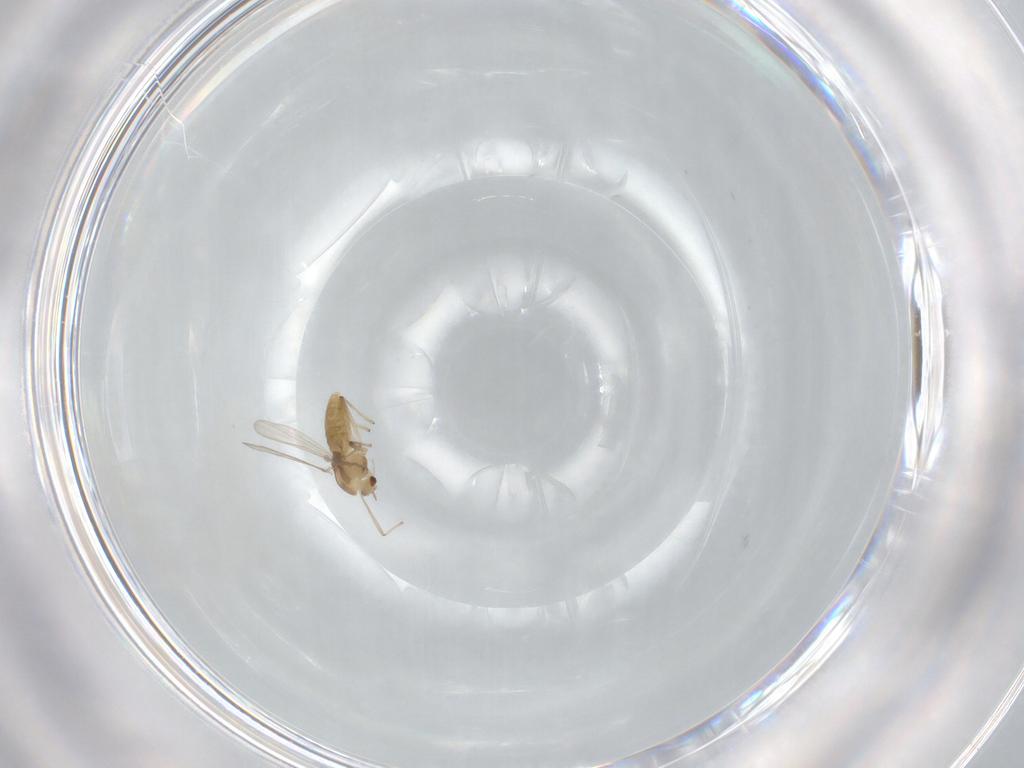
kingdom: Animalia
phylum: Arthropoda
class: Insecta
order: Diptera
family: Chironomidae
